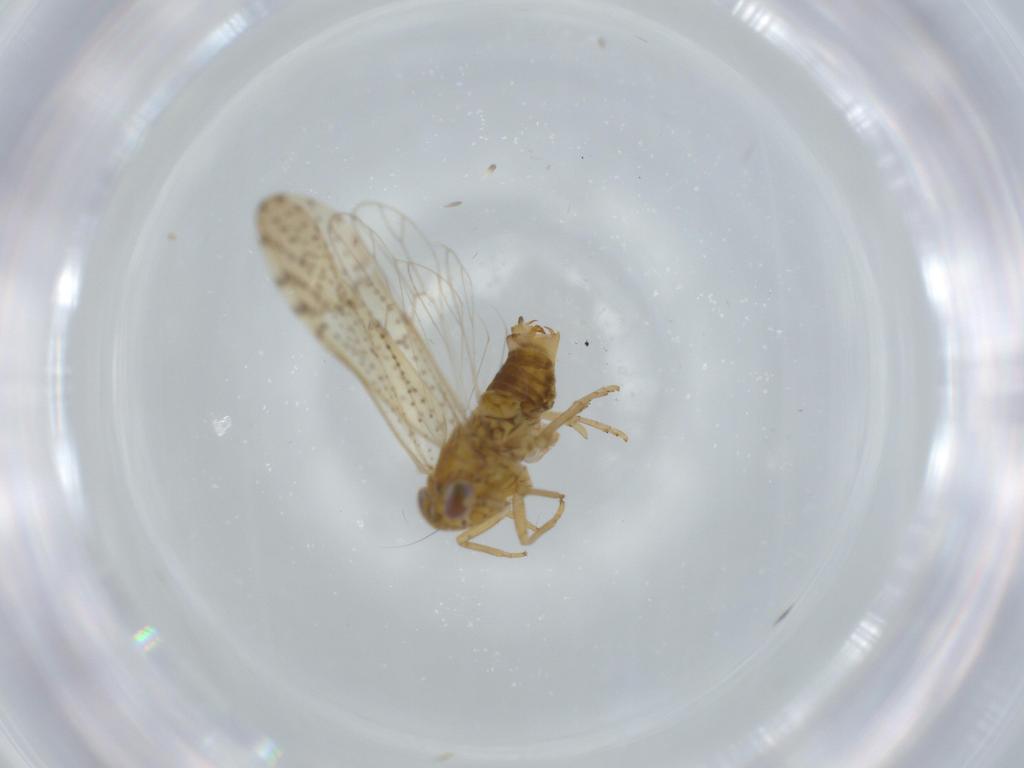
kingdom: Animalia
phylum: Arthropoda
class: Insecta
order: Hemiptera
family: Delphacidae
